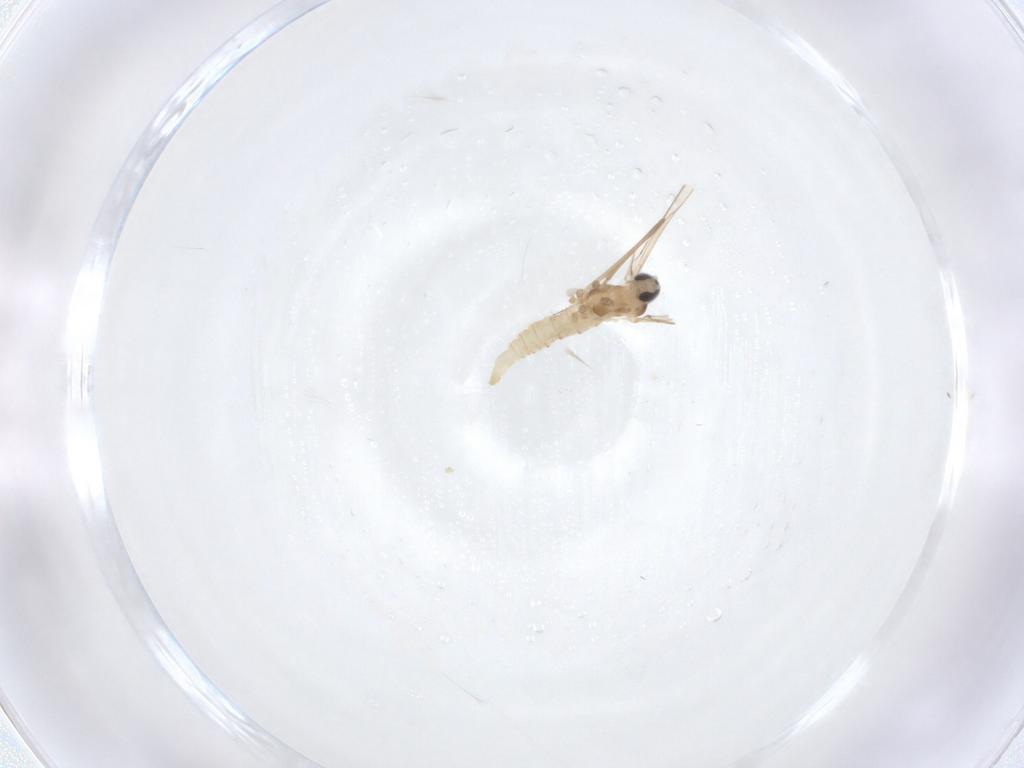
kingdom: Animalia
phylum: Arthropoda
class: Insecta
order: Diptera
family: Cecidomyiidae
